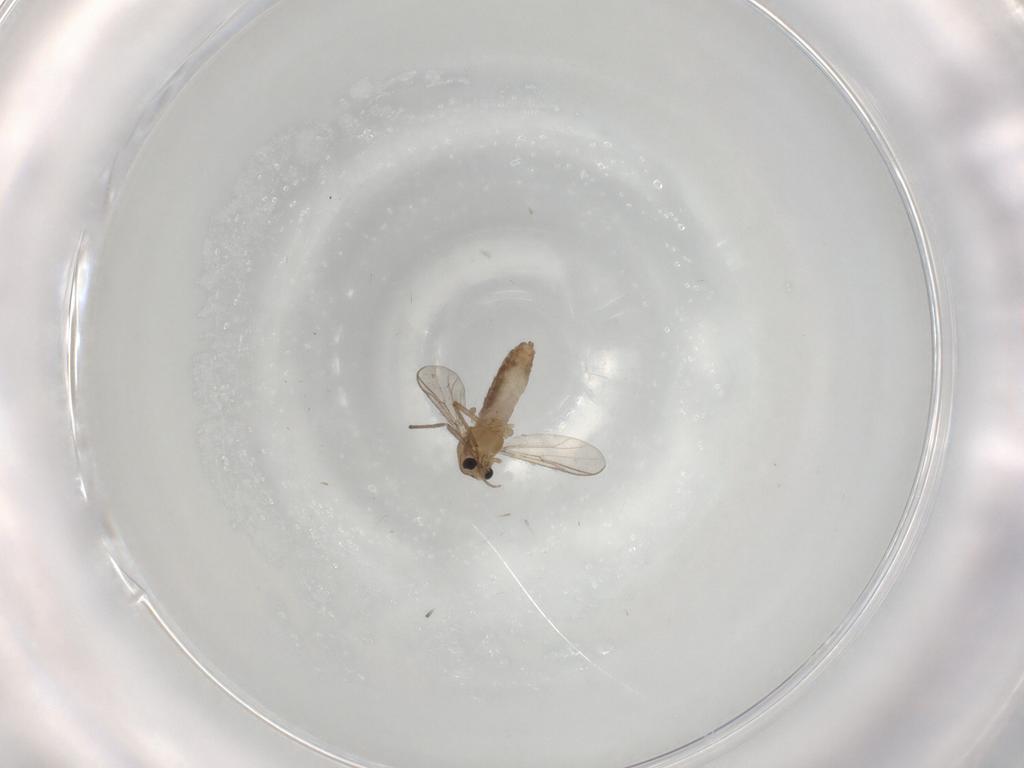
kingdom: Animalia
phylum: Arthropoda
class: Insecta
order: Diptera
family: Chironomidae
